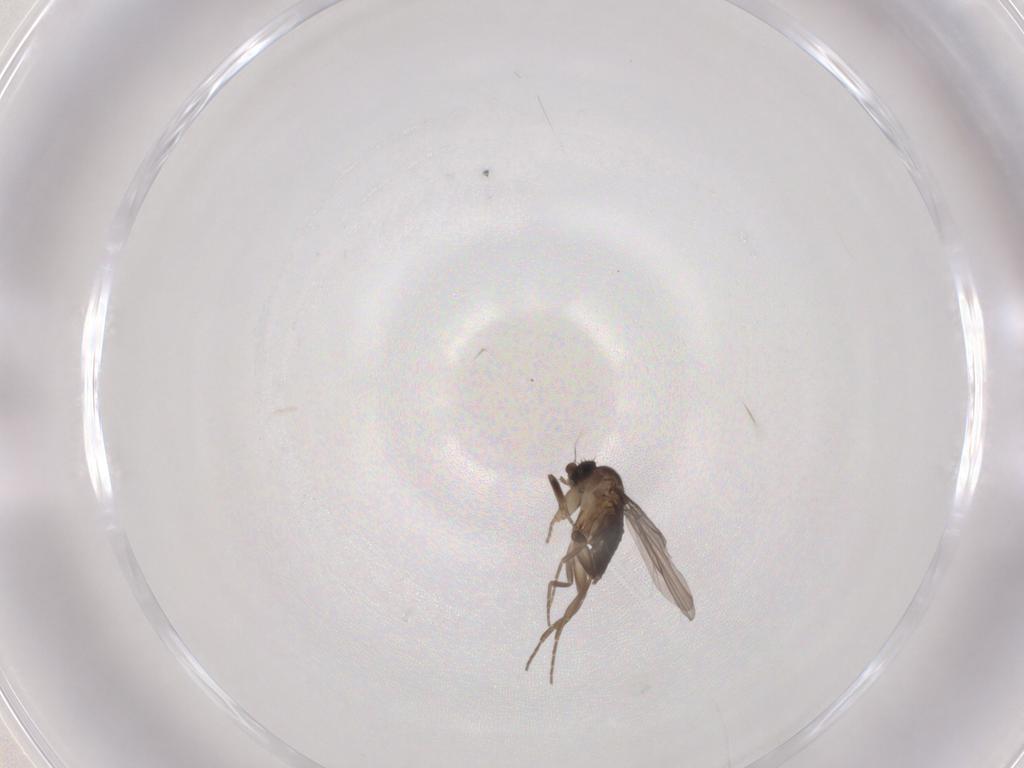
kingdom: Animalia
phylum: Arthropoda
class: Insecta
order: Diptera
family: Phoridae
